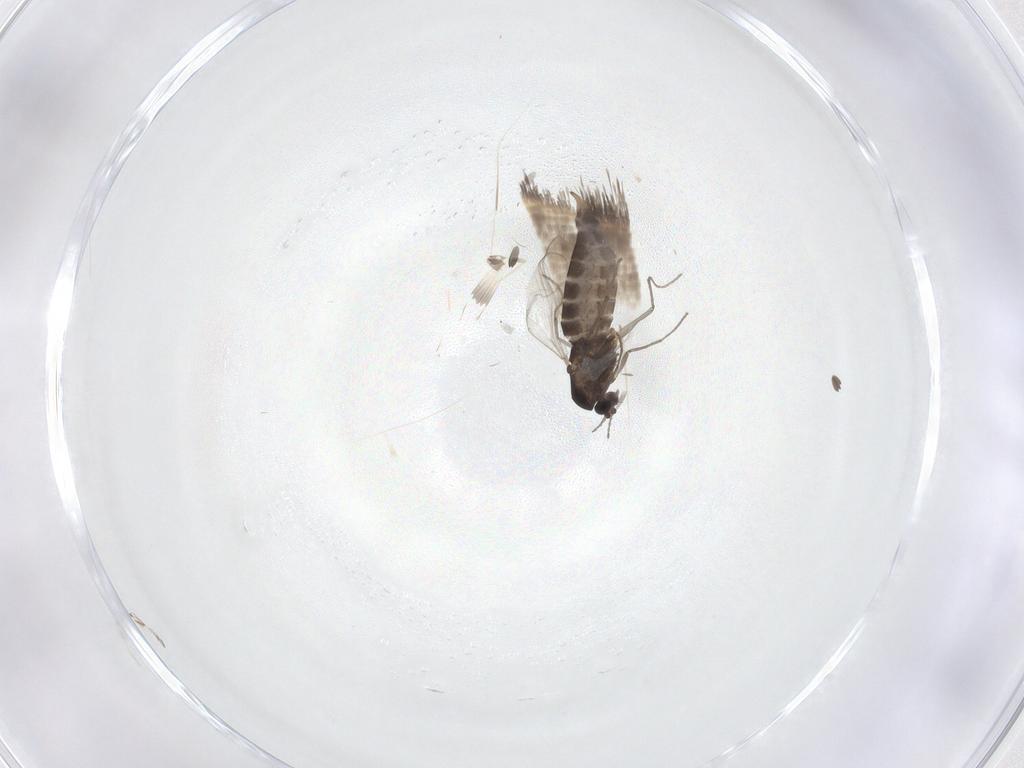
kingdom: Animalia
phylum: Arthropoda
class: Insecta
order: Diptera
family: Chironomidae
